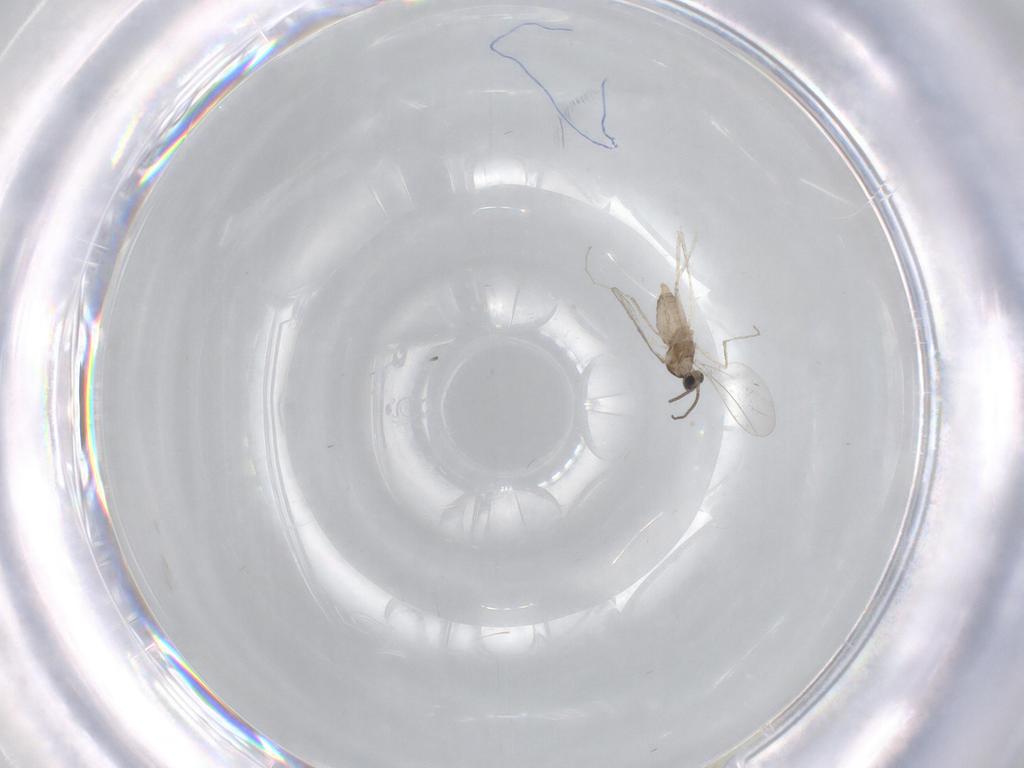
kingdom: Animalia
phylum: Arthropoda
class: Insecta
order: Diptera
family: Cecidomyiidae
